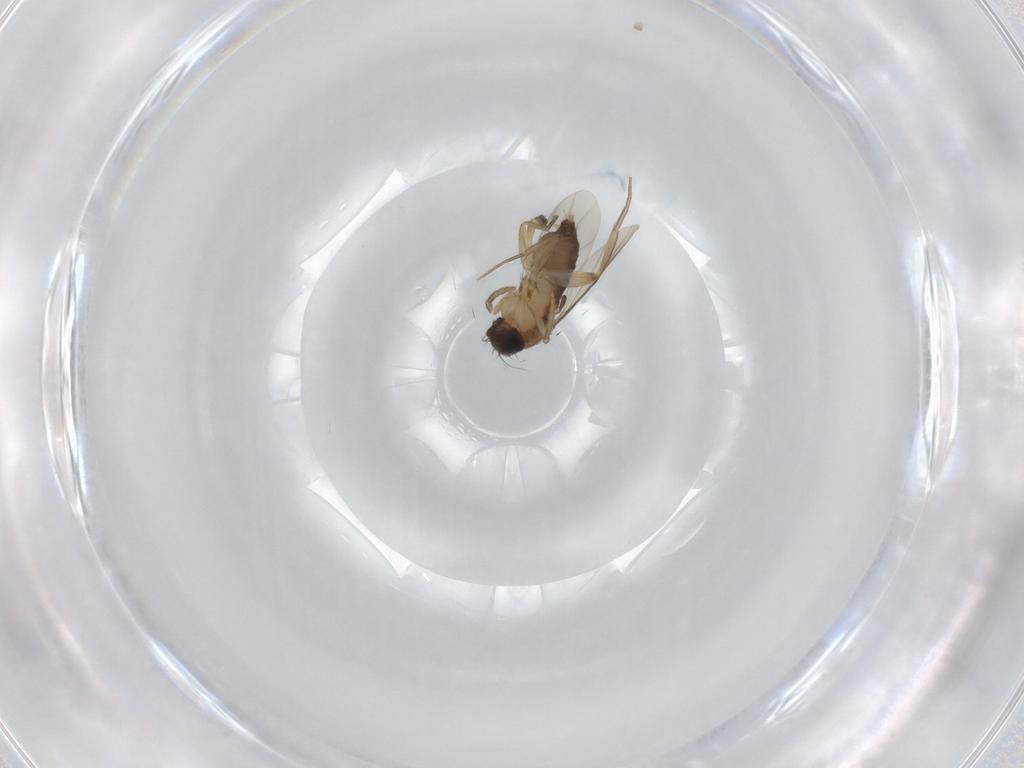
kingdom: Animalia
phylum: Arthropoda
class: Insecta
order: Diptera
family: Phoridae
